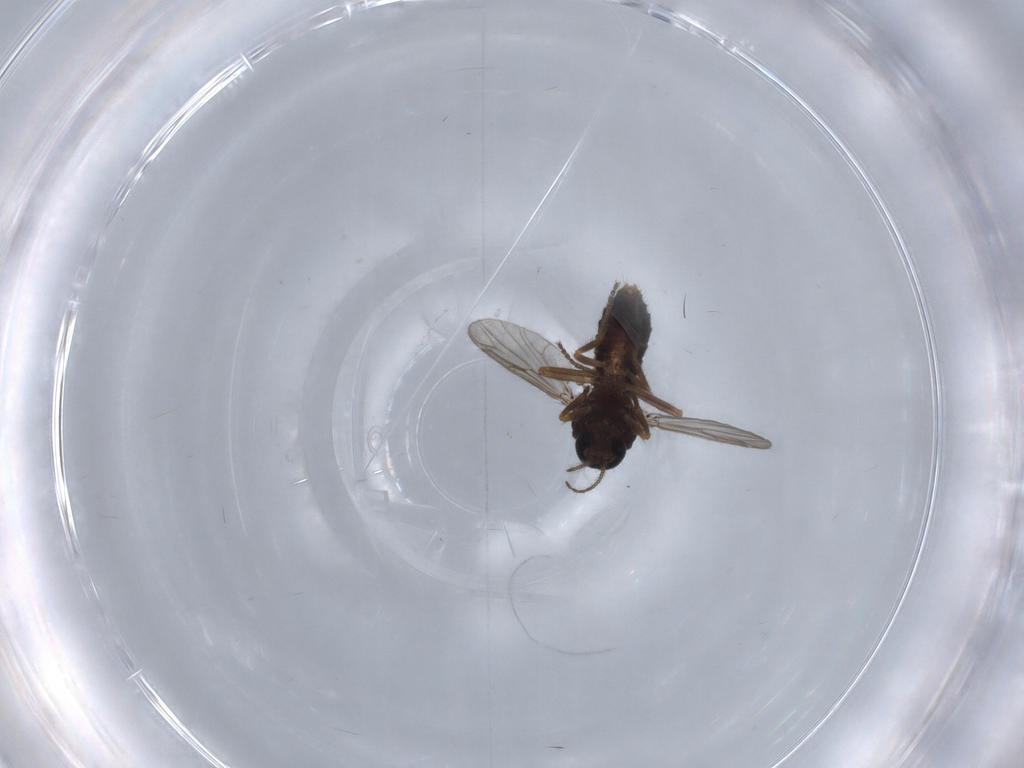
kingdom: Animalia
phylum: Arthropoda
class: Insecta
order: Diptera
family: Ceratopogonidae
